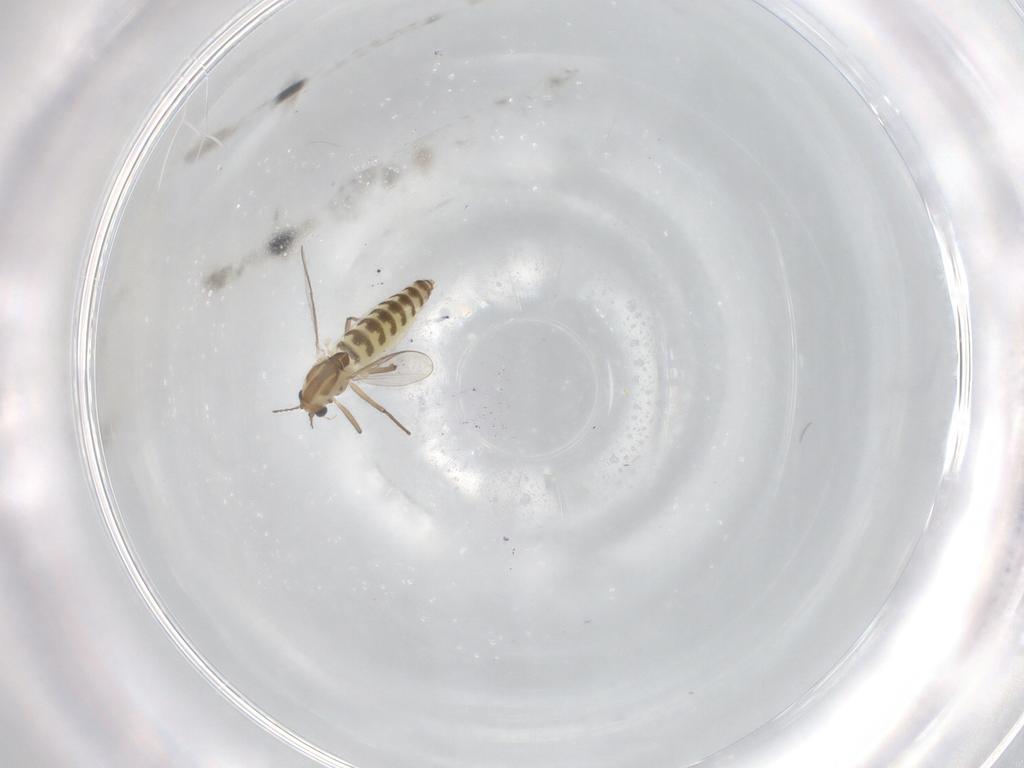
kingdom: Animalia
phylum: Arthropoda
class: Insecta
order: Diptera
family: Chironomidae
